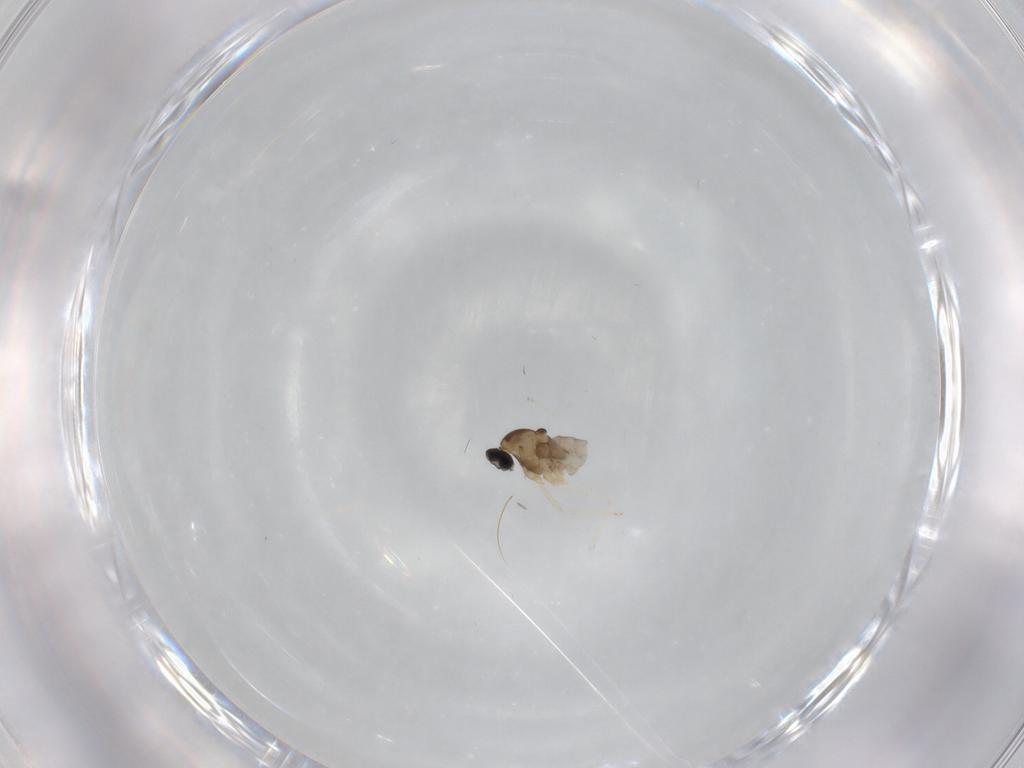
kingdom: Animalia
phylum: Arthropoda
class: Insecta
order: Diptera
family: Cecidomyiidae
